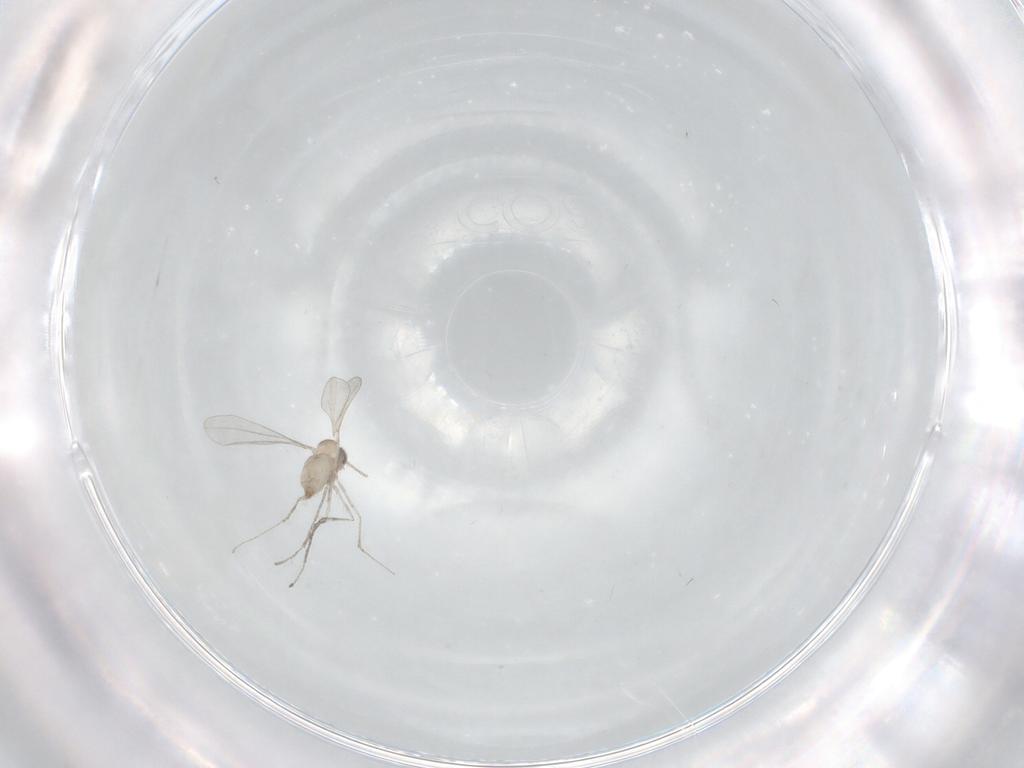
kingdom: Animalia
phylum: Arthropoda
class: Insecta
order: Diptera
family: Cecidomyiidae
